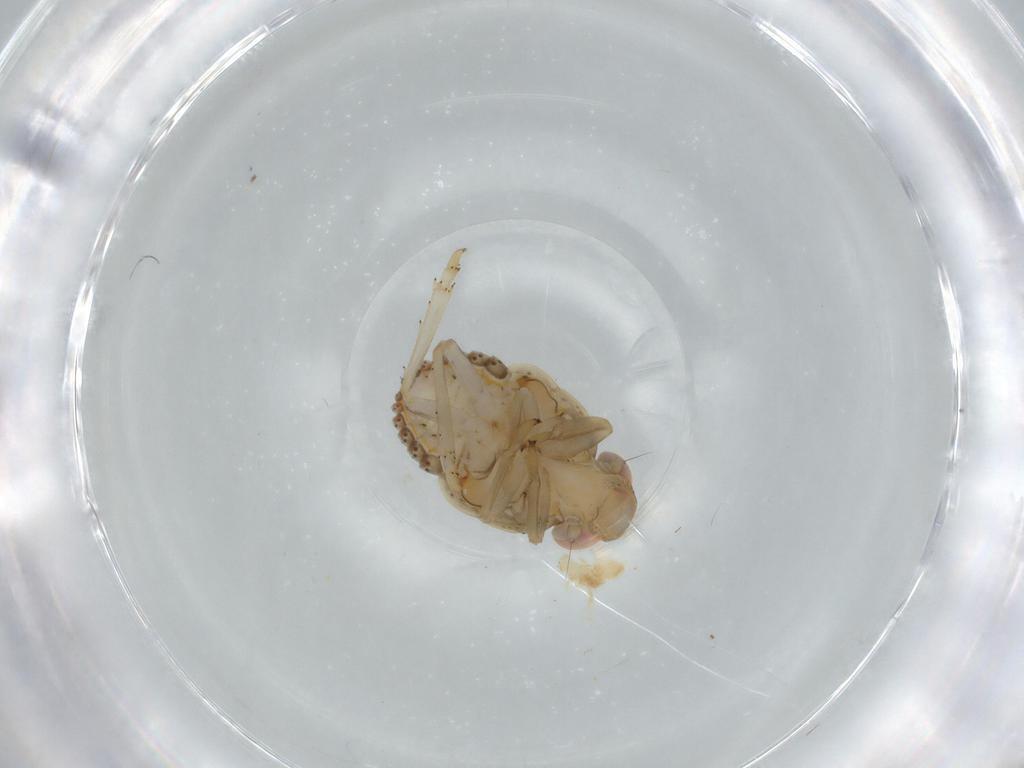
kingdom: Animalia
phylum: Arthropoda
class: Insecta
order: Hemiptera
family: Issidae
